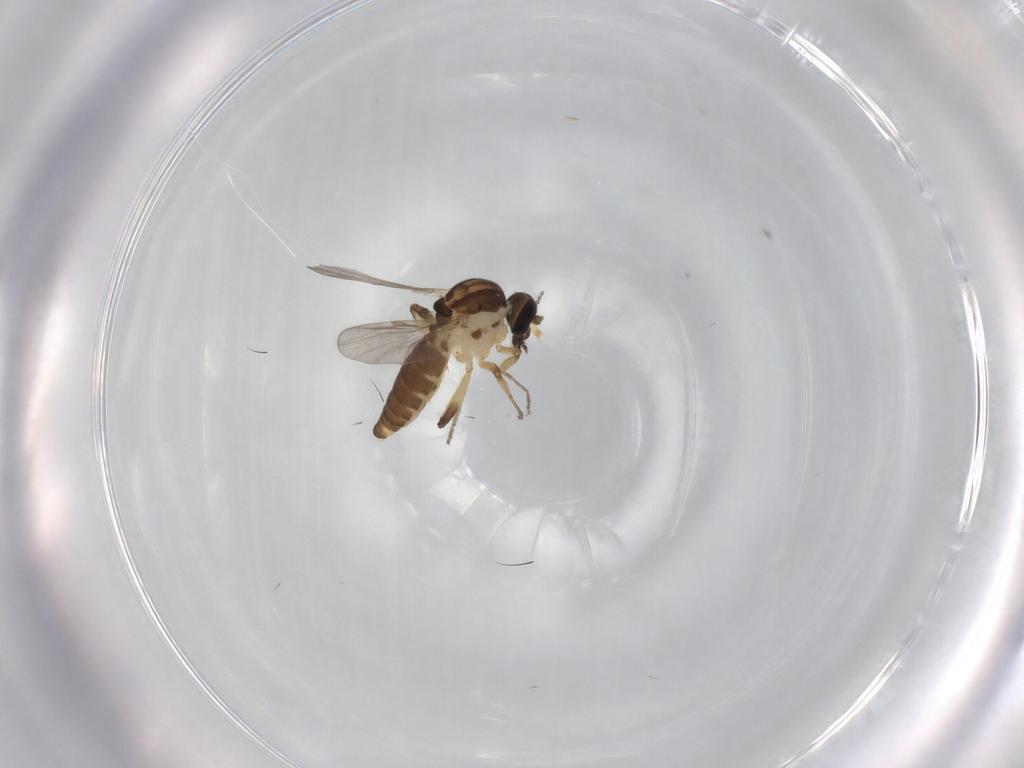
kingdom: Animalia
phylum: Arthropoda
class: Insecta
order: Diptera
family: Ceratopogonidae
